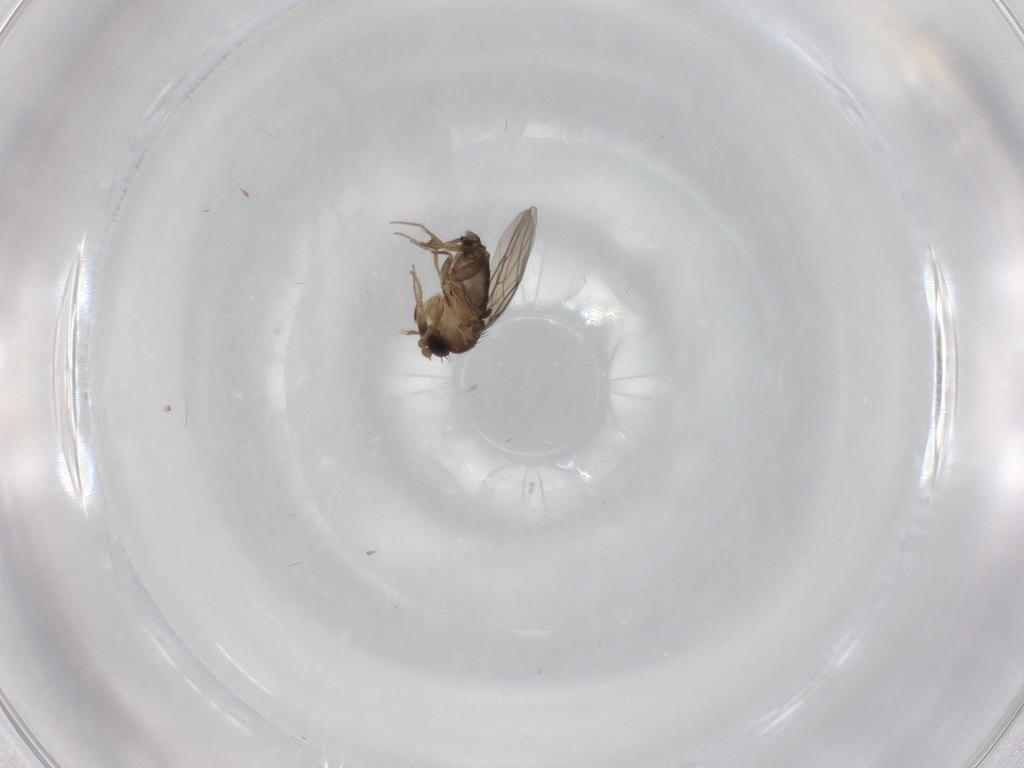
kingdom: Animalia
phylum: Arthropoda
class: Insecta
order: Diptera
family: Phoridae
